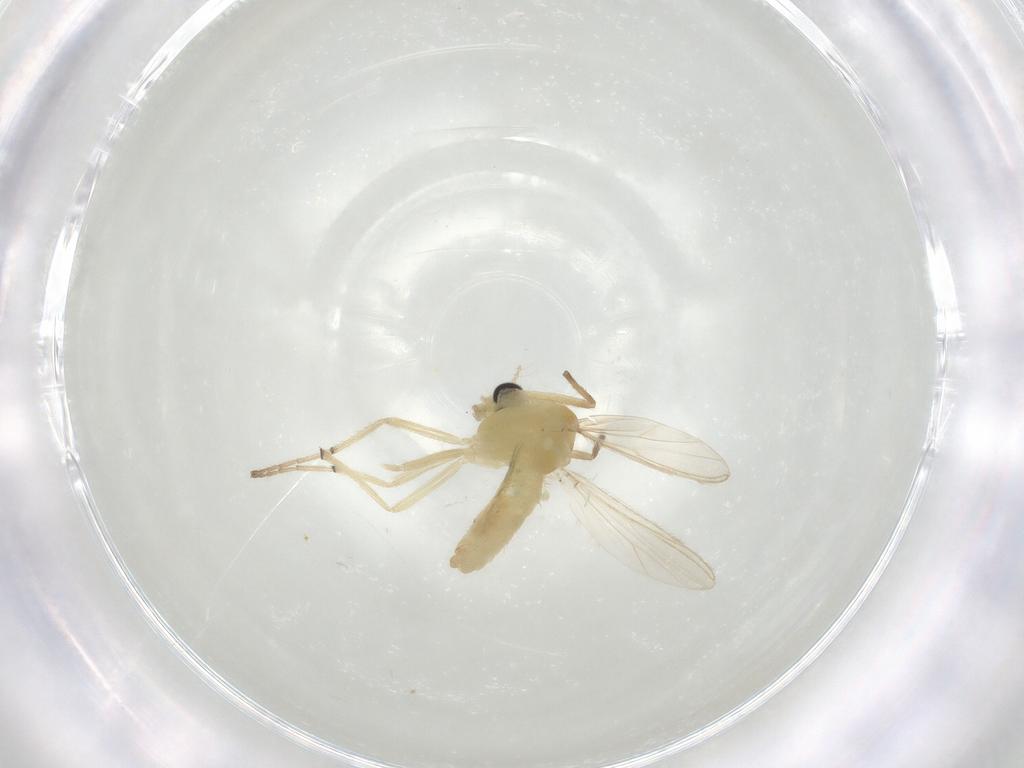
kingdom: Animalia
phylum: Arthropoda
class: Insecta
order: Diptera
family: Chironomidae
